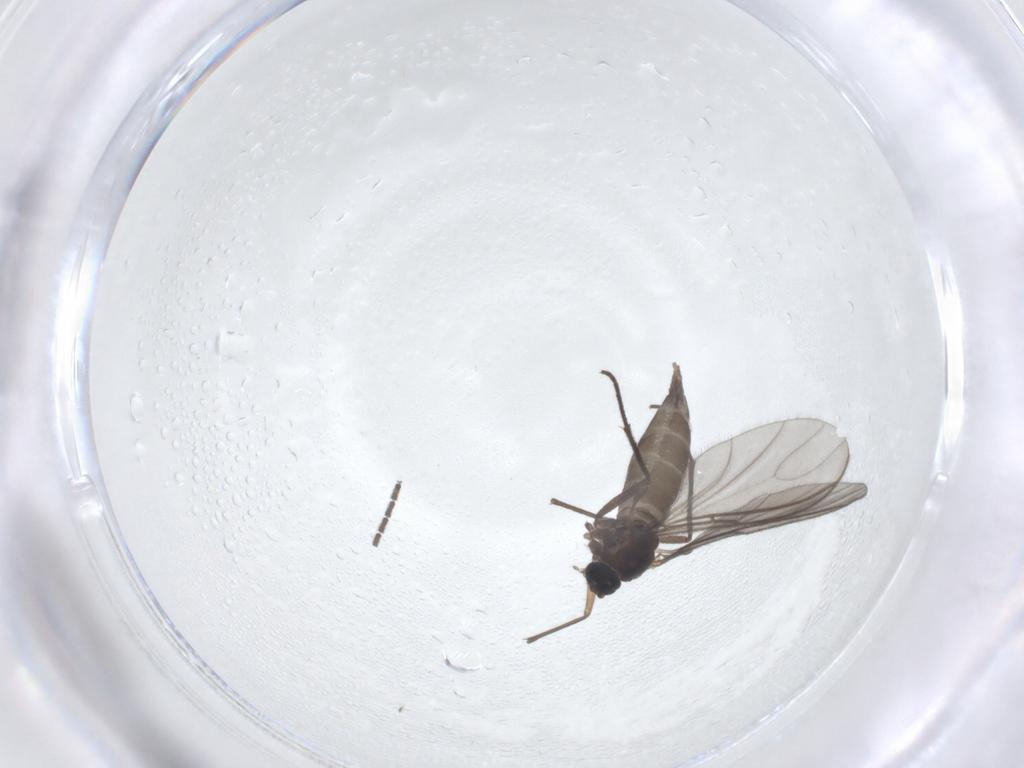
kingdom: Animalia
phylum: Arthropoda
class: Insecta
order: Diptera
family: Sciaridae
